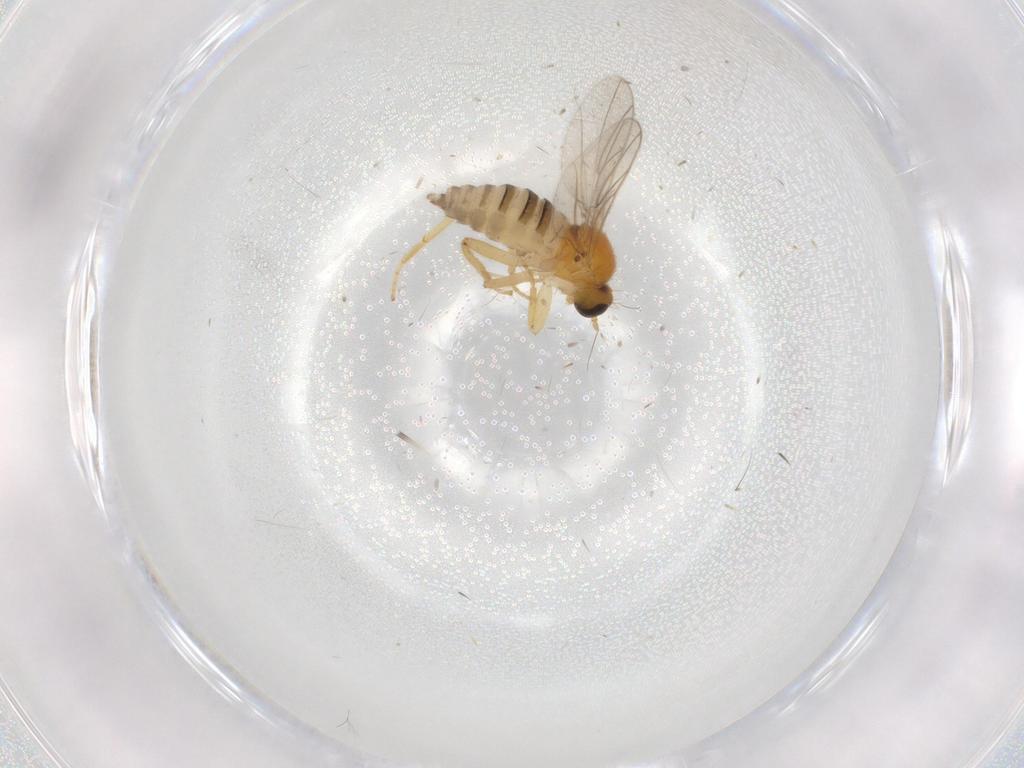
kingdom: Animalia
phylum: Arthropoda
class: Insecta
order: Diptera
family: Hybotidae
